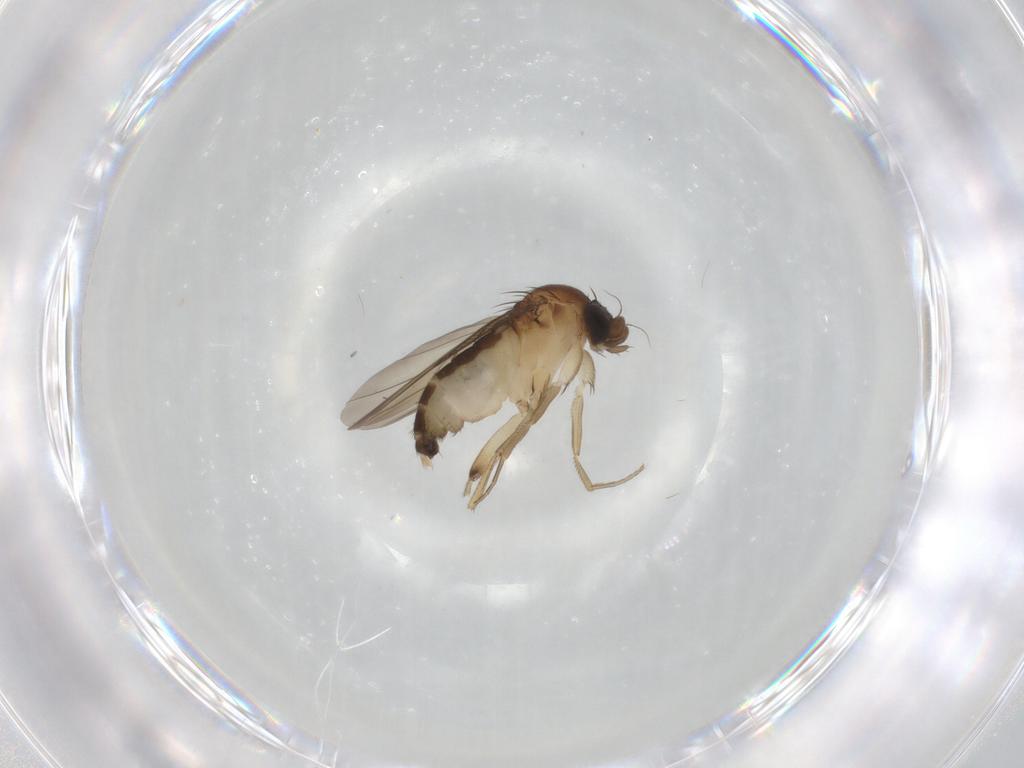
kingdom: Animalia
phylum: Arthropoda
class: Insecta
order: Diptera
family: Phoridae
